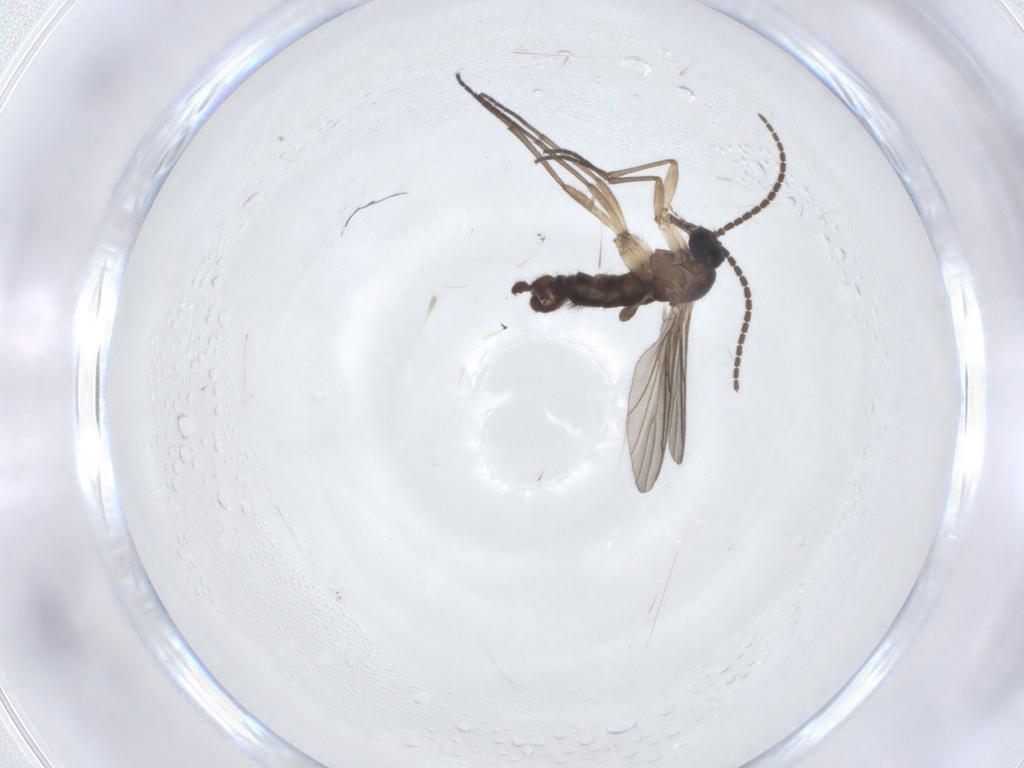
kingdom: Animalia
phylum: Arthropoda
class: Insecta
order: Diptera
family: Sciaridae
